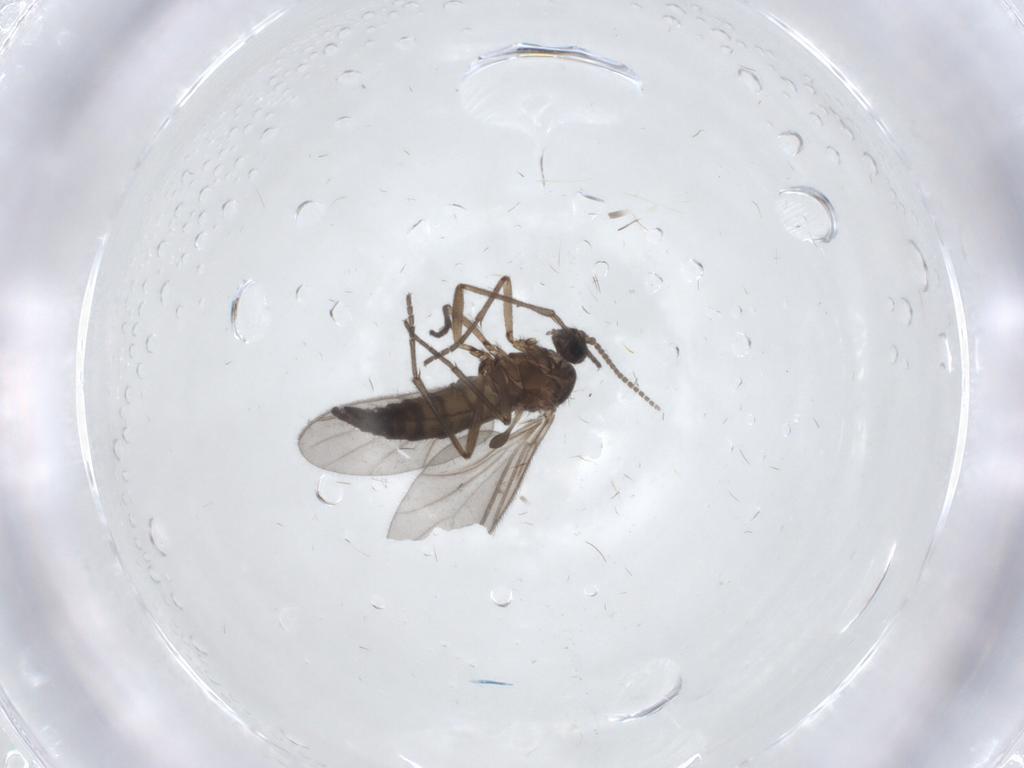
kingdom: Animalia
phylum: Arthropoda
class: Insecta
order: Diptera
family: Sciaridae
